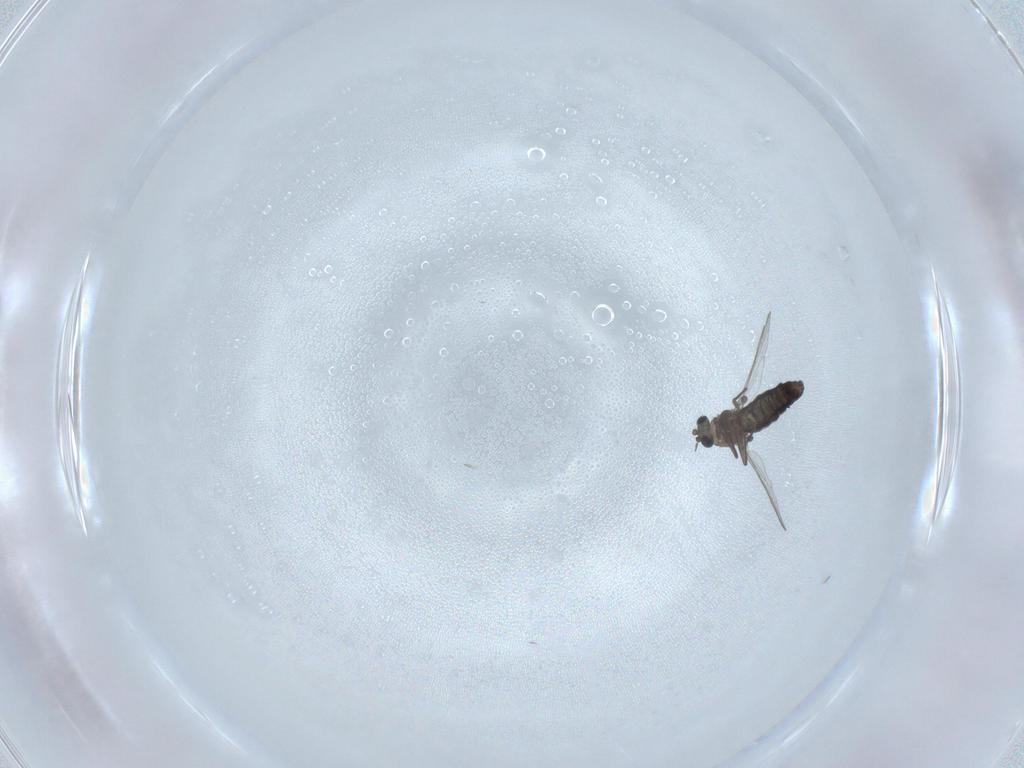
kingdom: Animalia
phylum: Arthropoda
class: Insecta
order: Diptera
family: Chironomidae
